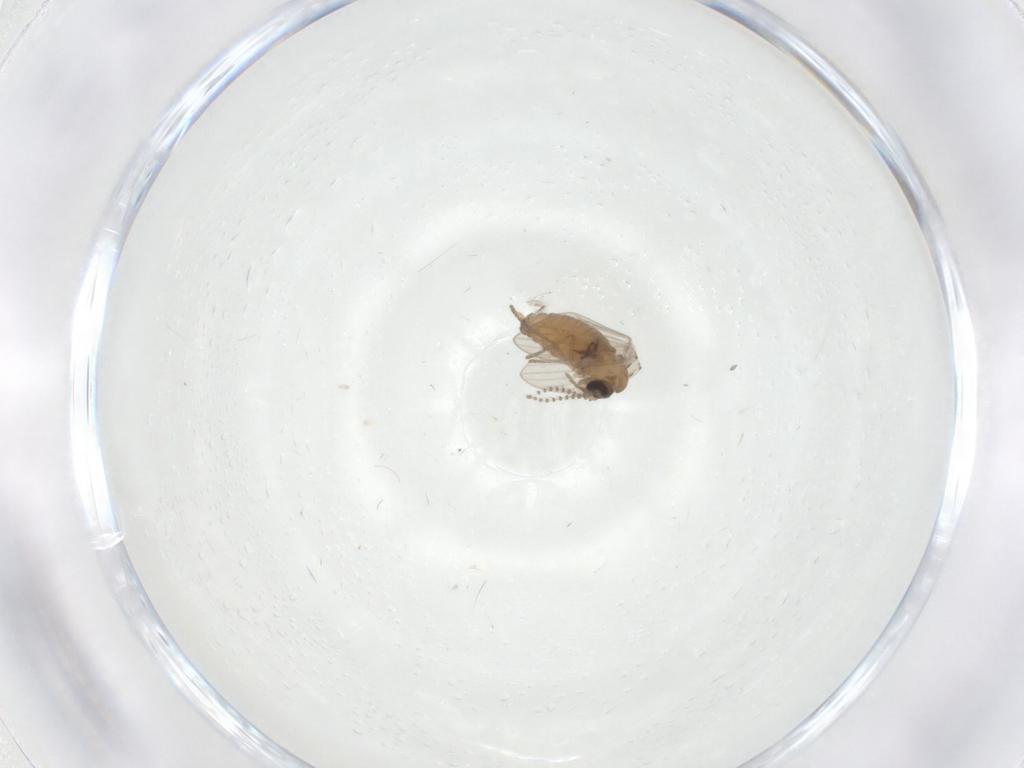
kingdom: Animalia
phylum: Arthropoda
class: Insecta
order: Diptera
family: Psychodidae
